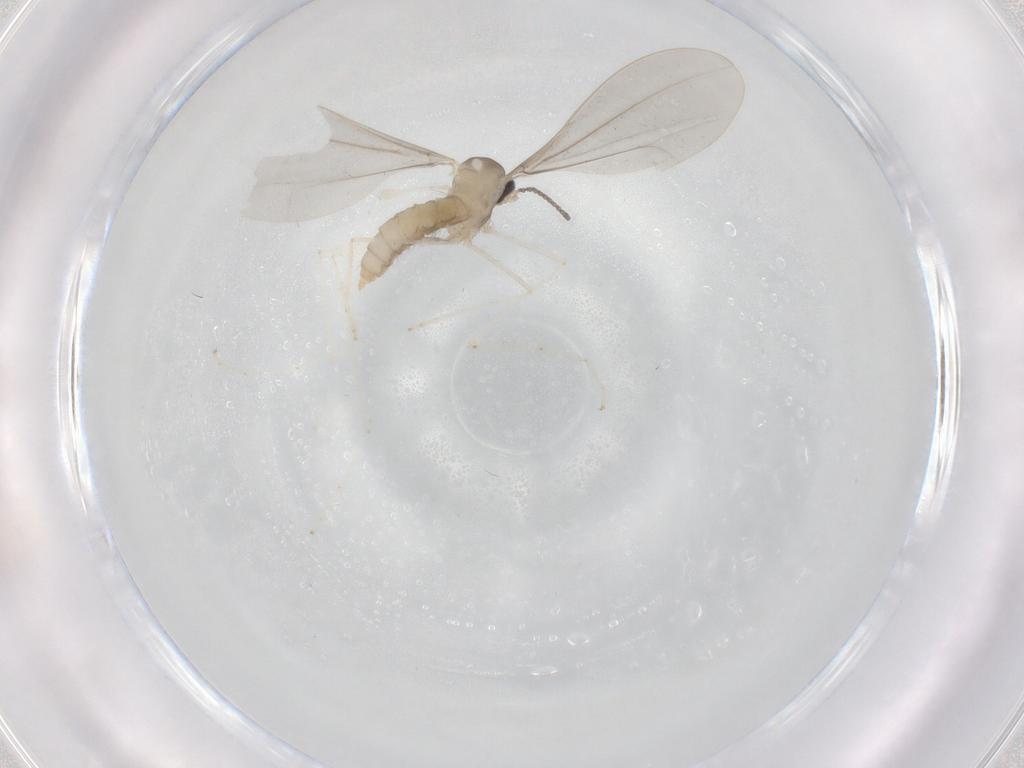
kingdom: Animalia
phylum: Arthropoda
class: Insecta
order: Diptera
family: Cecidomyiidae
